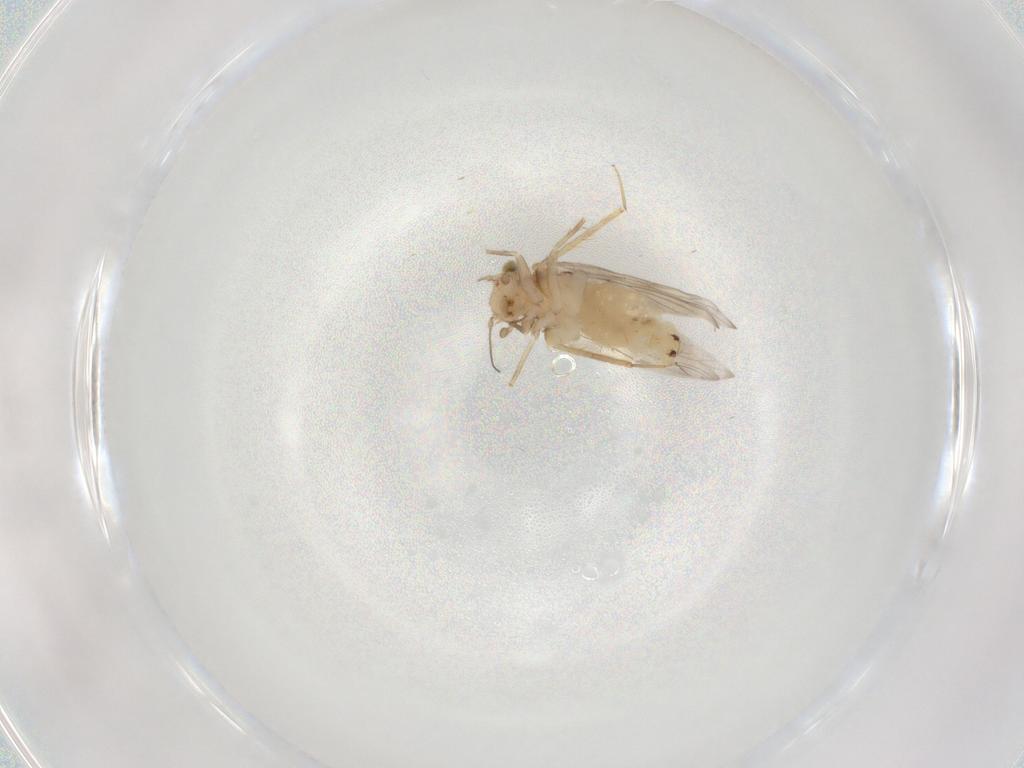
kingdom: Animalia
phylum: Arthropoda
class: Insecta
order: Psocodea
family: Lepidopsocidae
